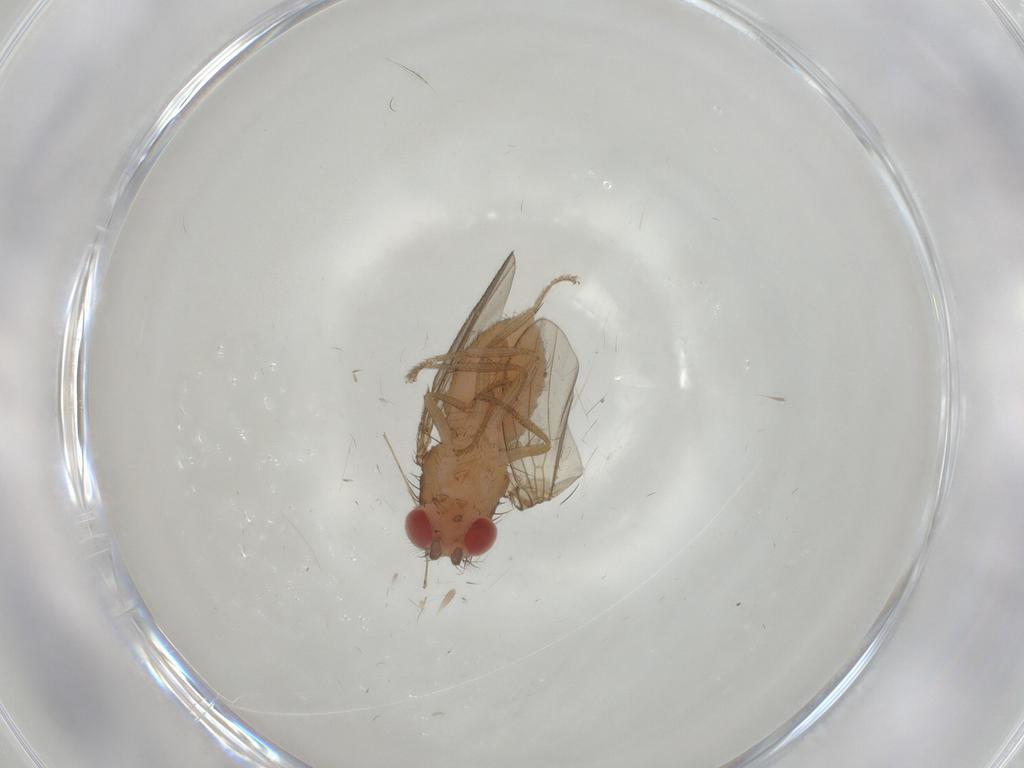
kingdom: Animalia
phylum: Arthropoda
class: Insecta
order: Diptera
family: Drosophilidae
